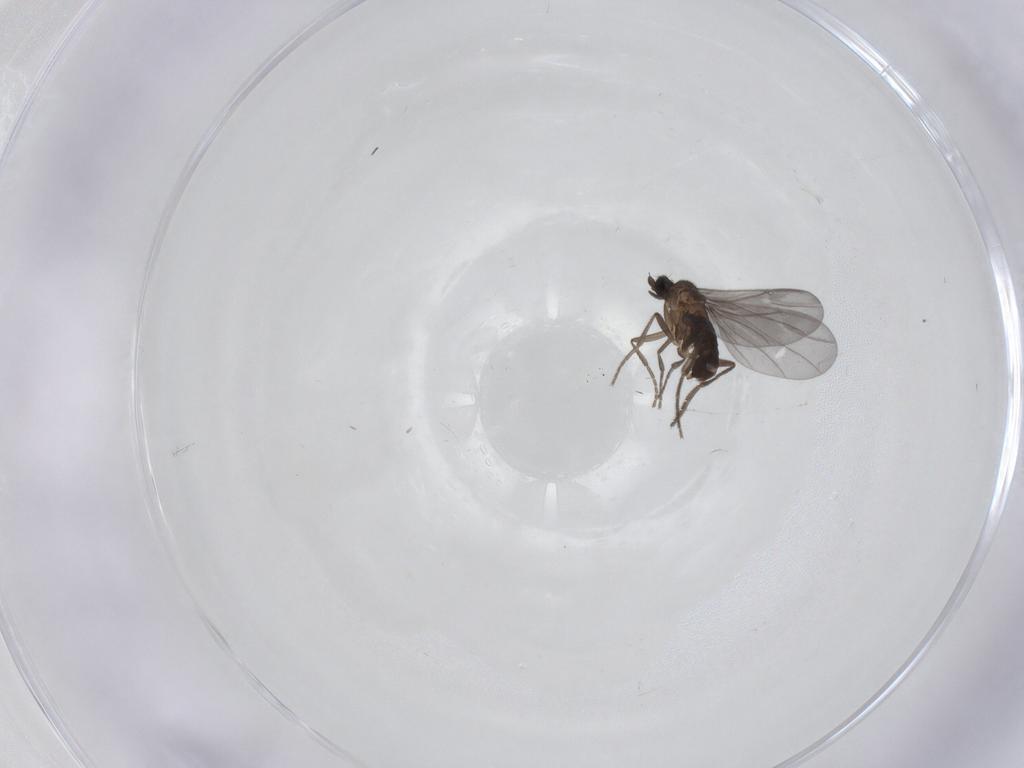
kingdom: Animalia
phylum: Arthropoda
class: Insecta
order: Diptera
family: Phoridae
